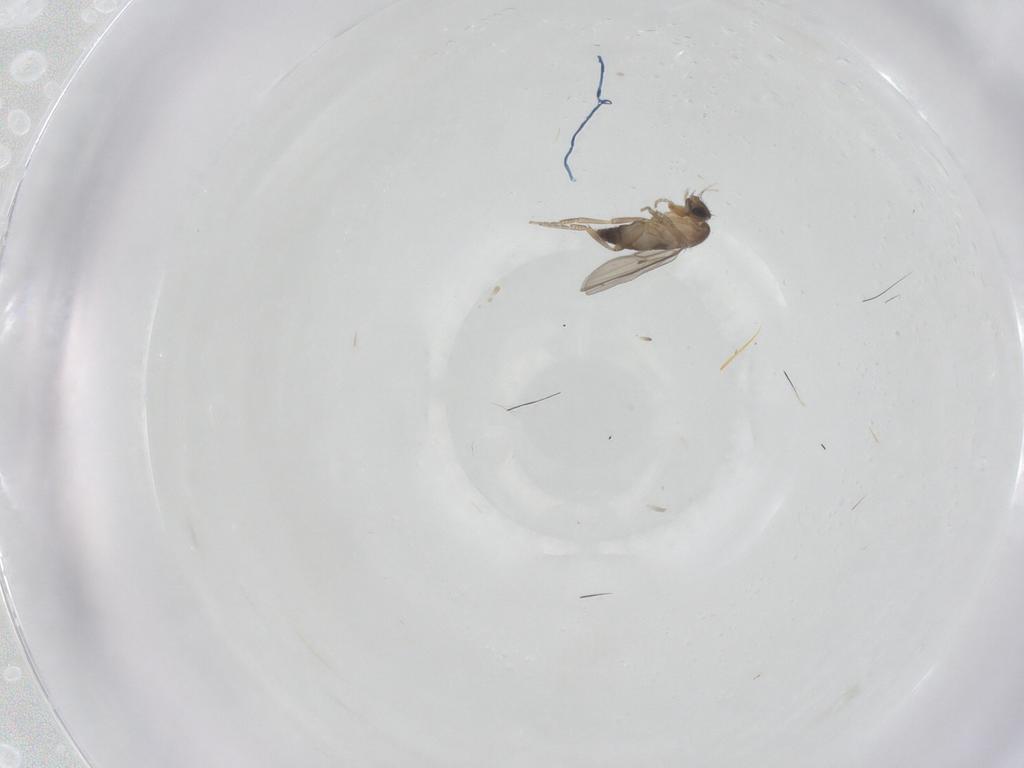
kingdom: Animalia
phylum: Arthropoda
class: Insecta
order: Diptera
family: Phoridae
